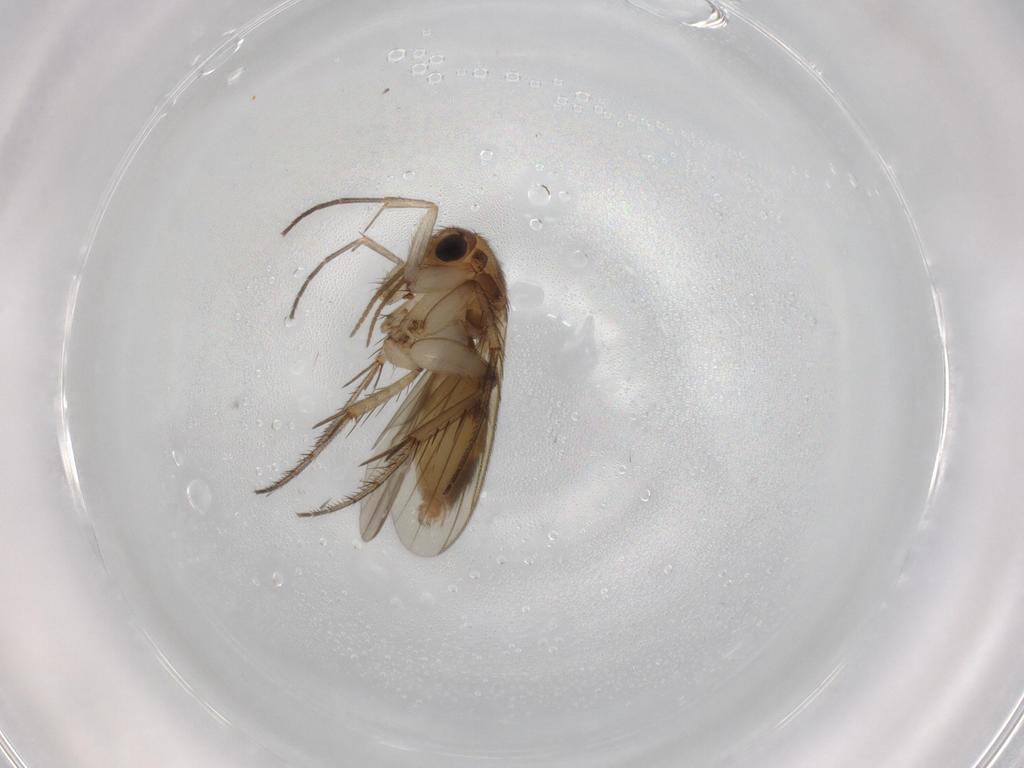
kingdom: Animalia
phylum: Arthropoda
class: Insecta
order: Diptera
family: Mycetophilidae
